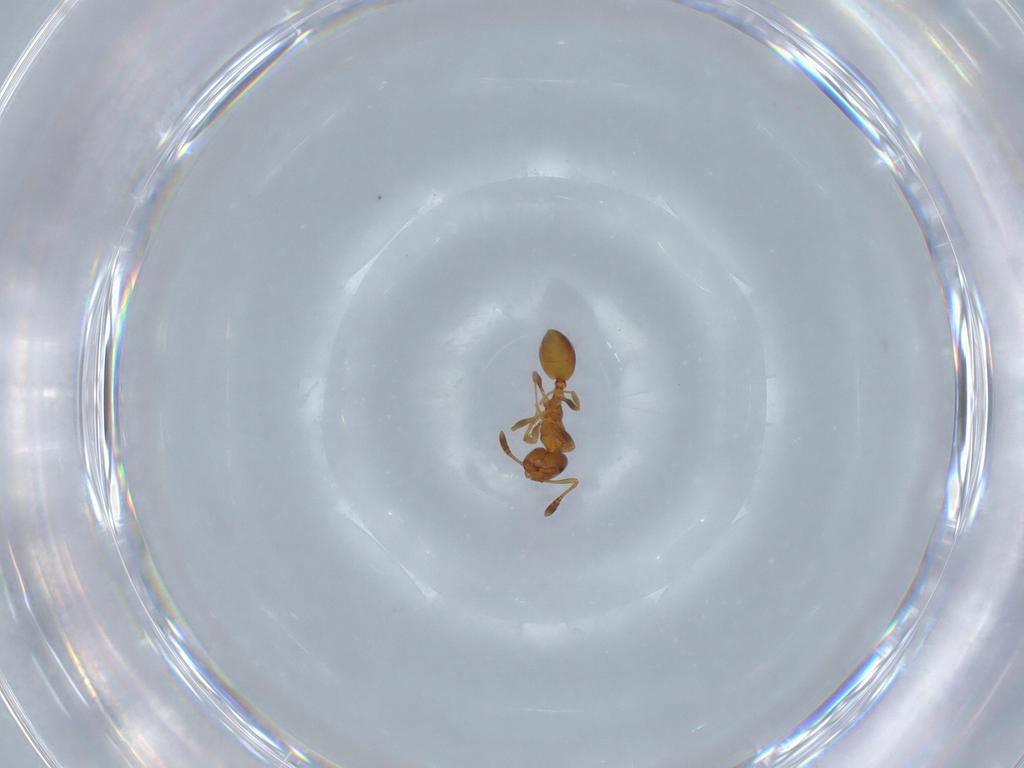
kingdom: Animalia
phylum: Arthropoda
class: Insecta
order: Hymenoptera
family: Formicidae
